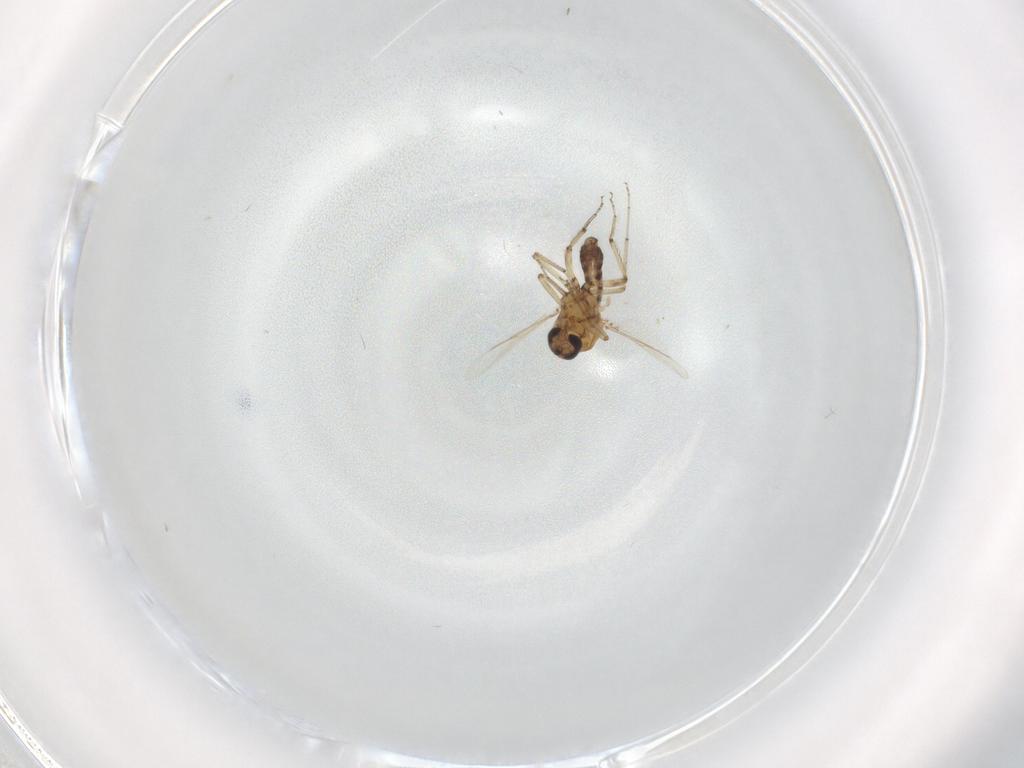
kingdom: Animalia
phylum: Arthropoda
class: Insecta
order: Diptera
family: Ceratopogonidae
